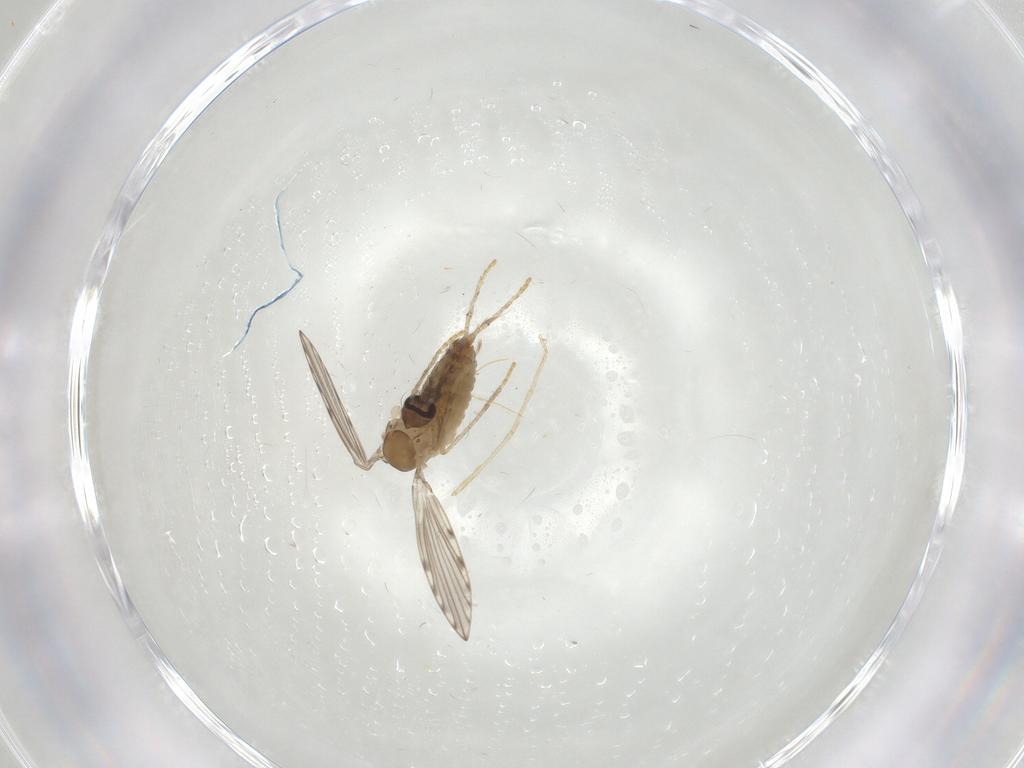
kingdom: Animalia
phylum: Arthropoda
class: Insecta
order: Diptera
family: Psychodidae
